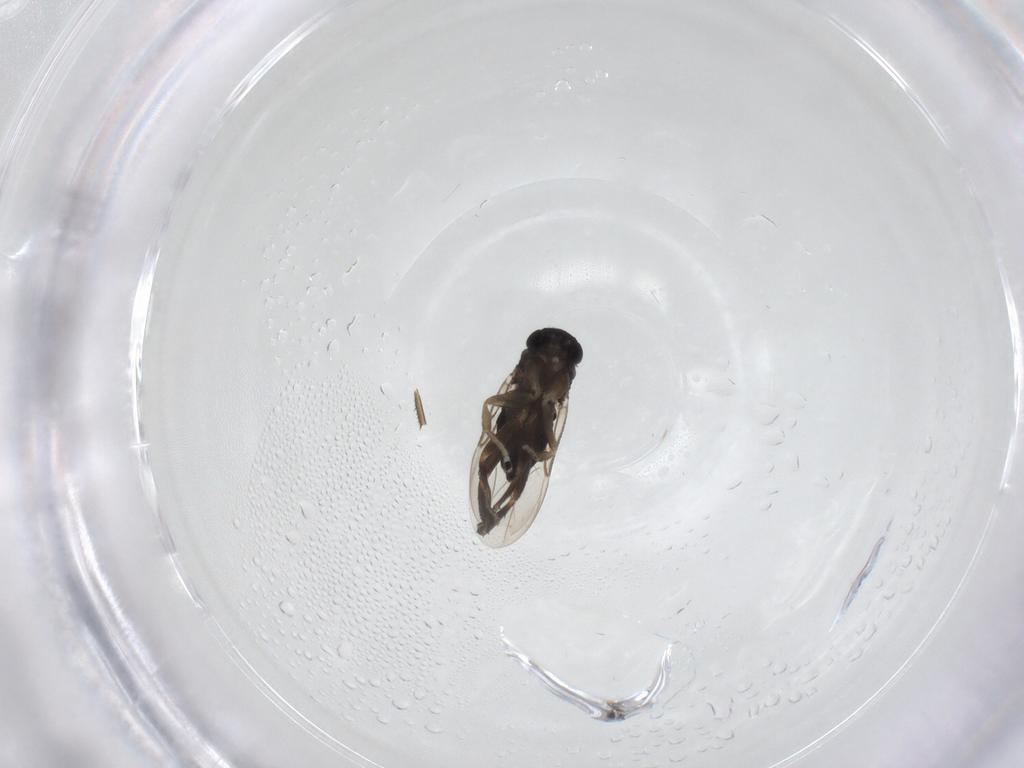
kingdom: Animalia
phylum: Arthropoda
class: Insecta
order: Diptera
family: Phoridae
